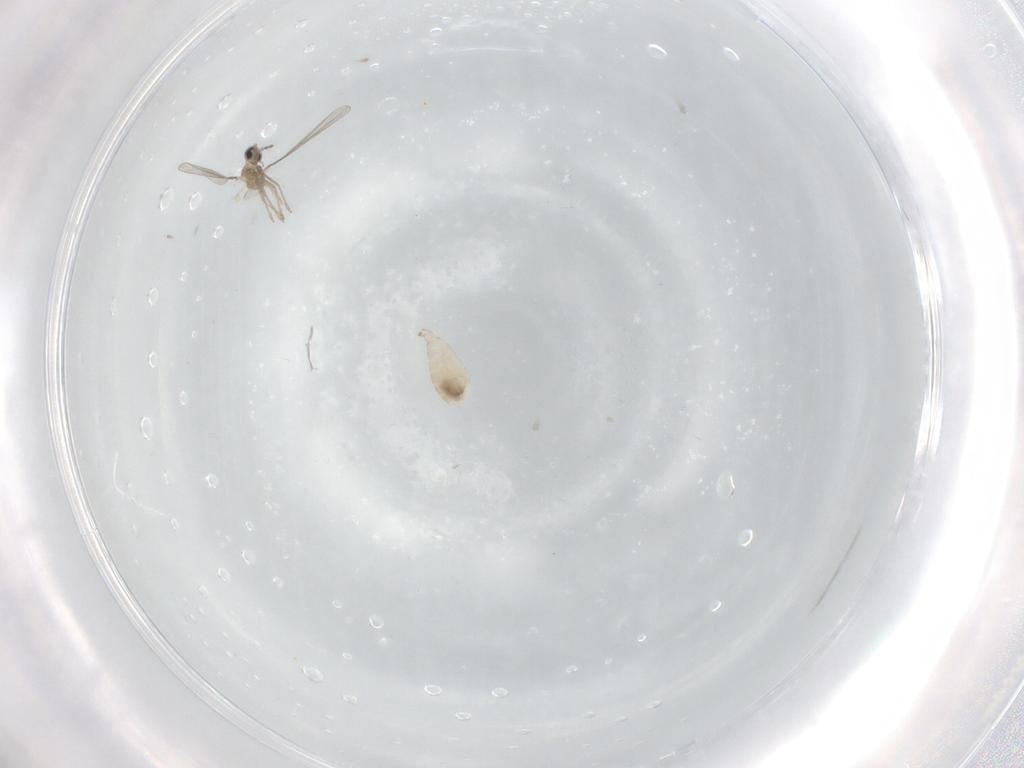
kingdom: Animalia
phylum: Arthropoda
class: Insecta
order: Diptera
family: Cecidomyiidae
